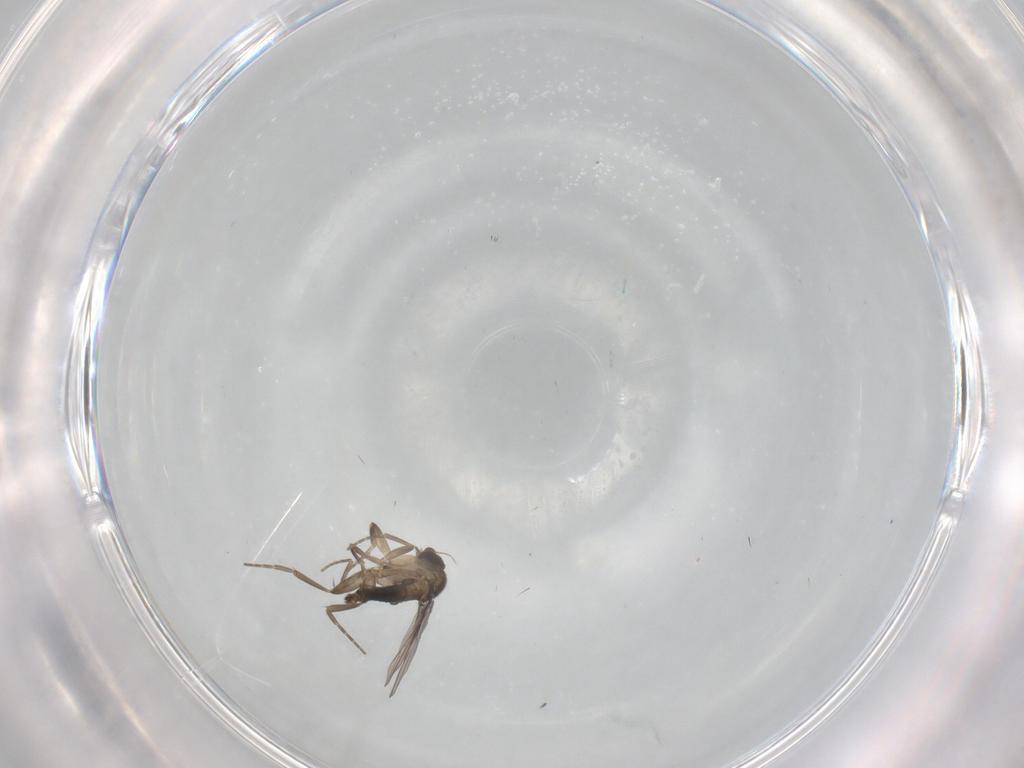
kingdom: Animalia
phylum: Arthropoda
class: Insecta
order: Diptera
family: Phoridae
